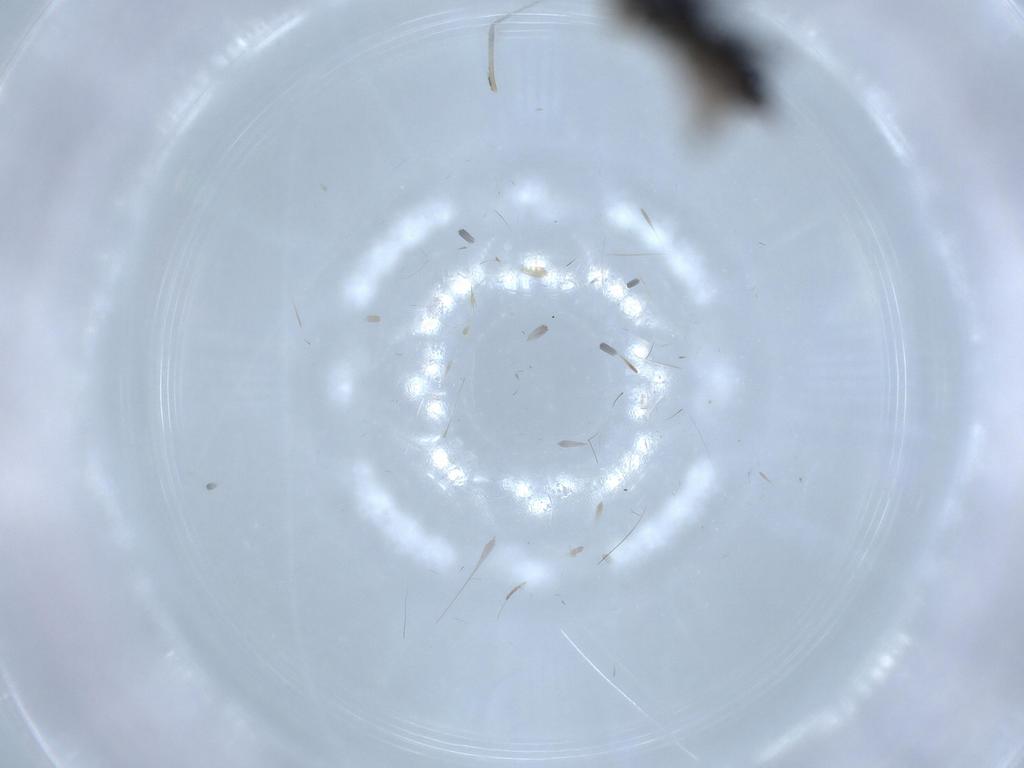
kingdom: Animalia
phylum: Arthropoda
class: Insecta
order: Diptera
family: Sciaridae
